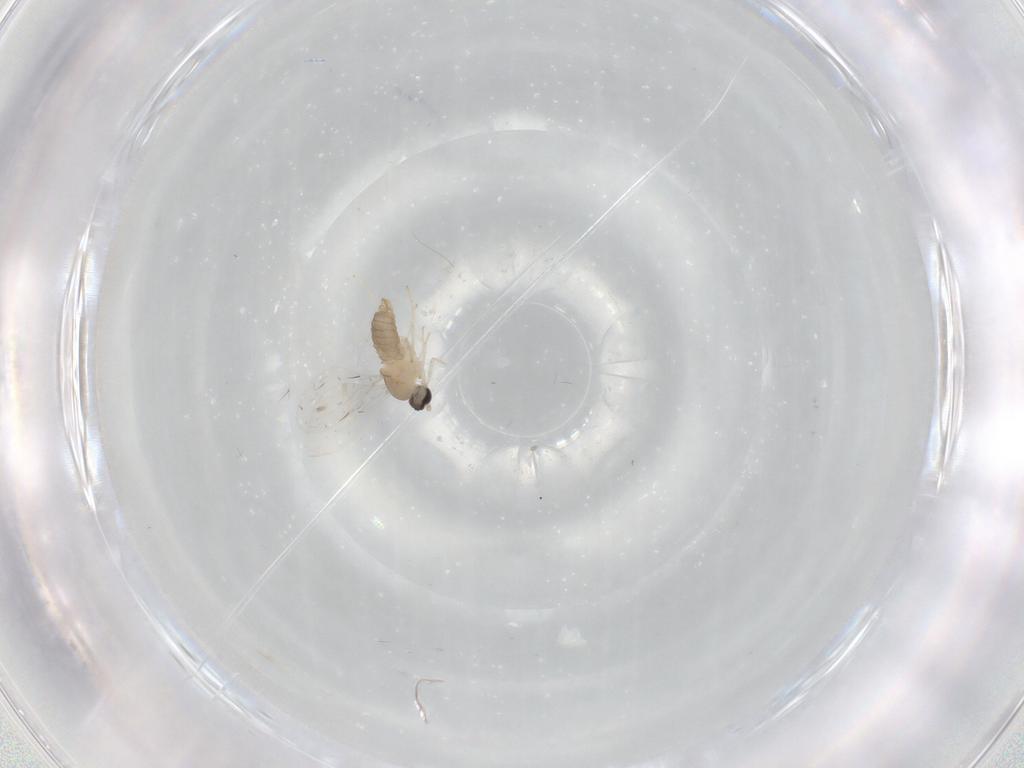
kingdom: Animalia
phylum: Arthropoda
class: Insecta
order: Diptera
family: Cecidomyiidae
